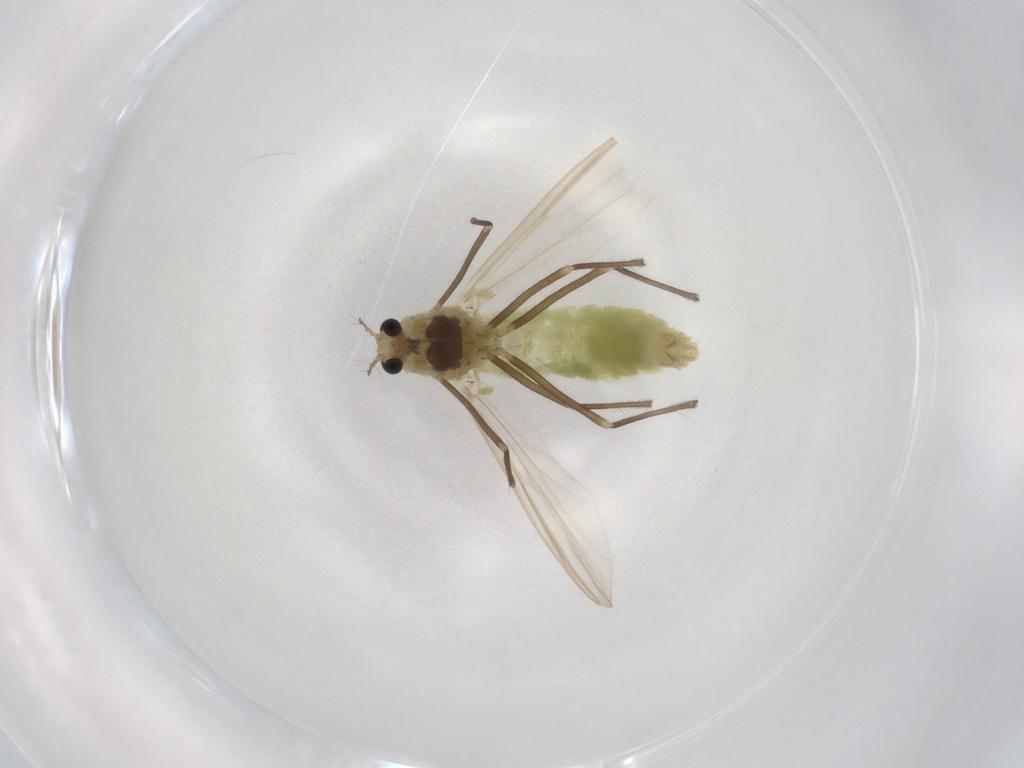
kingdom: Animalia
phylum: Arthropoda
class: Insecta
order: Diptera
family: Chironomidae
